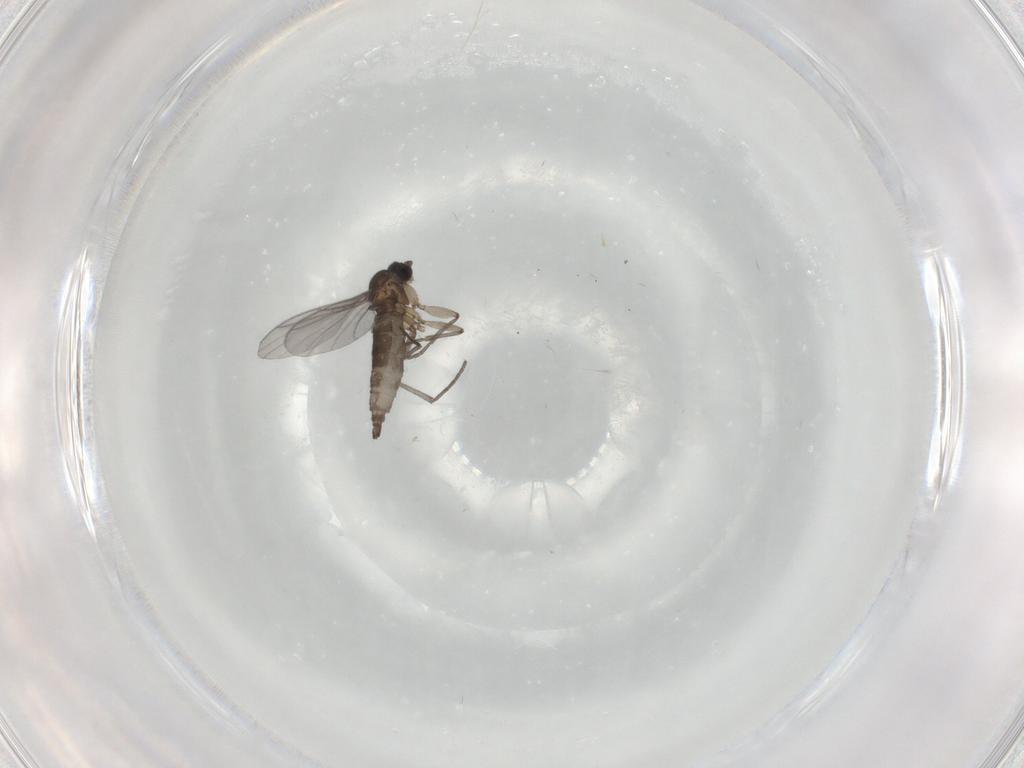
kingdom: Animalia
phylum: Arthropoda
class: Insecta
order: Diptera
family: Sciaridae
